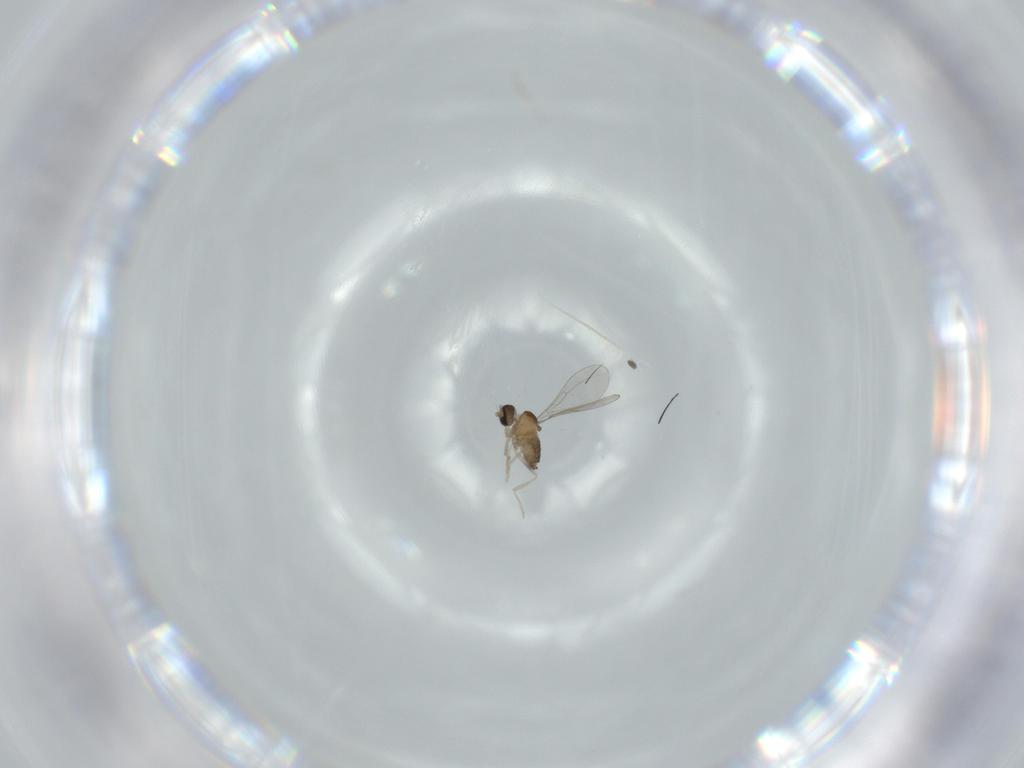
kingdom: Animalia
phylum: Arthropoda
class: Insecta
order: Diptera
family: Cecidomyiidae
